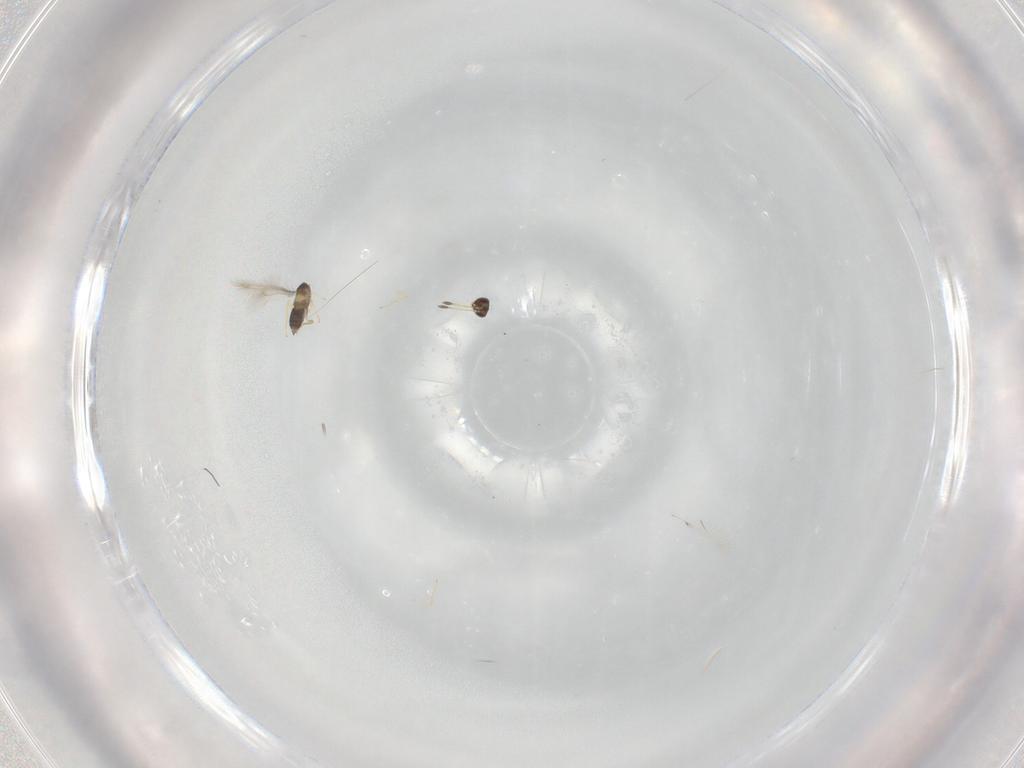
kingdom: Animalia
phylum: Arthropoda
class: Insecta
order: Hymenoptera
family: Mymaridae
